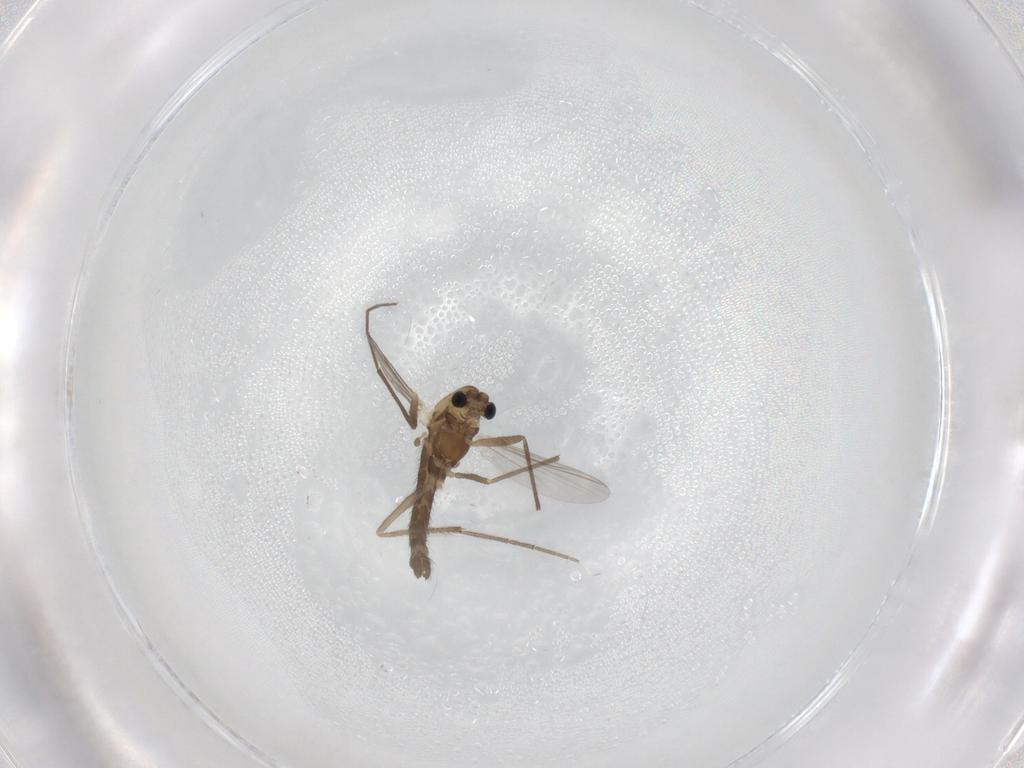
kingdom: Animalia
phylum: Arthropoda
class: Insecta
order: Diptera
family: Chironomidae
